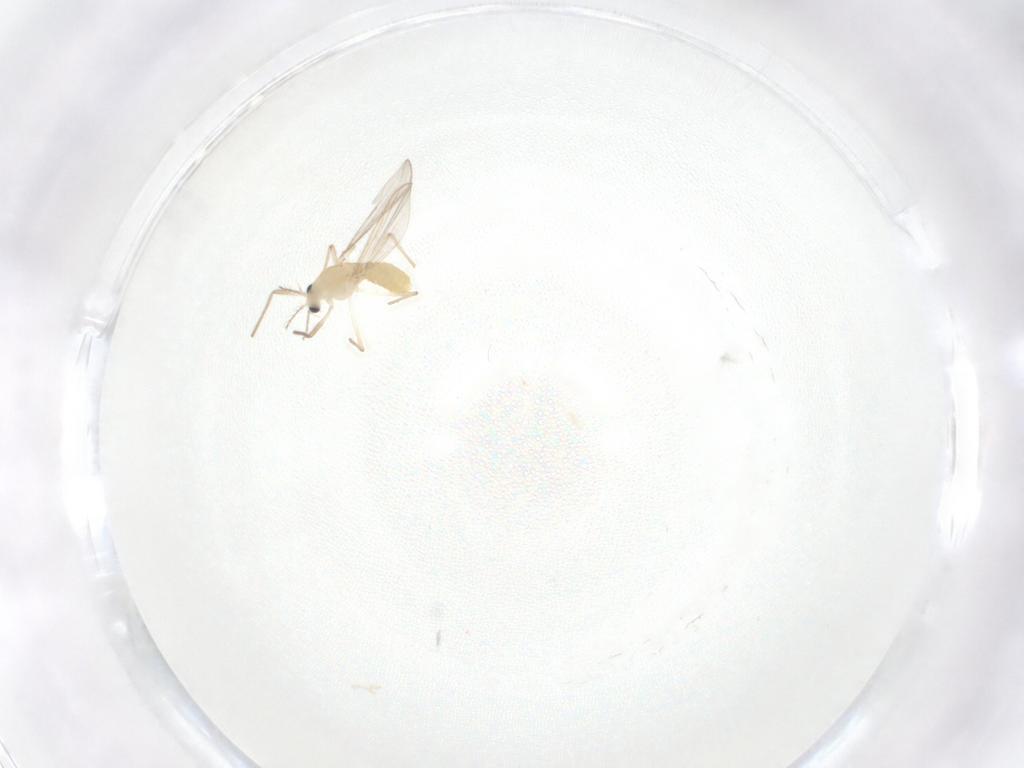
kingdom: Animalia
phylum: Arthropoda
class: Insecta
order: Diptera
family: Chironomidae
